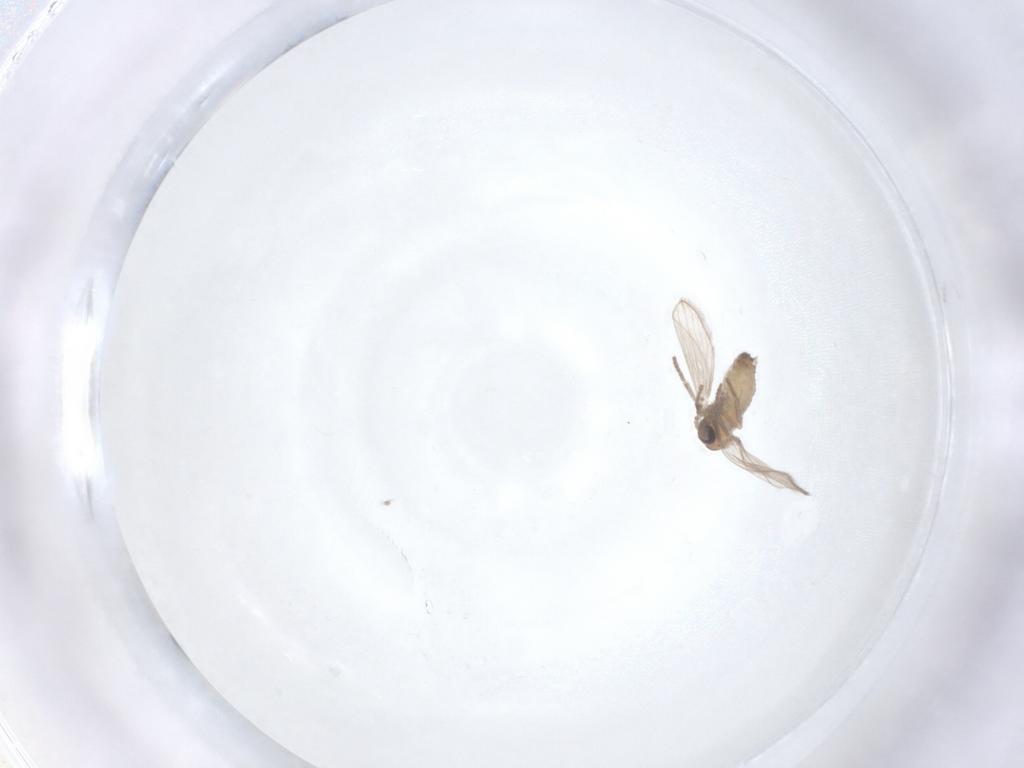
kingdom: Animalia
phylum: Arthropoda
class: Insecta
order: Diptera
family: Psychodidae
